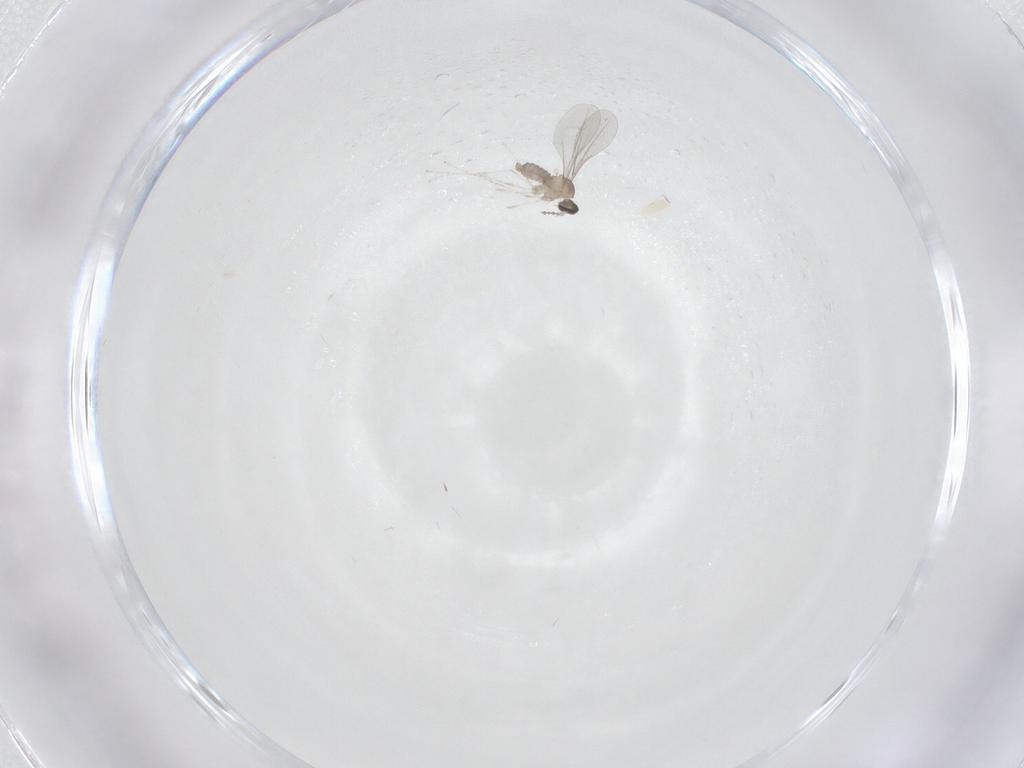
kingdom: Animalia
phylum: Arthropoda
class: Insecta
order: Diptera
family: Cecidomyiidae
